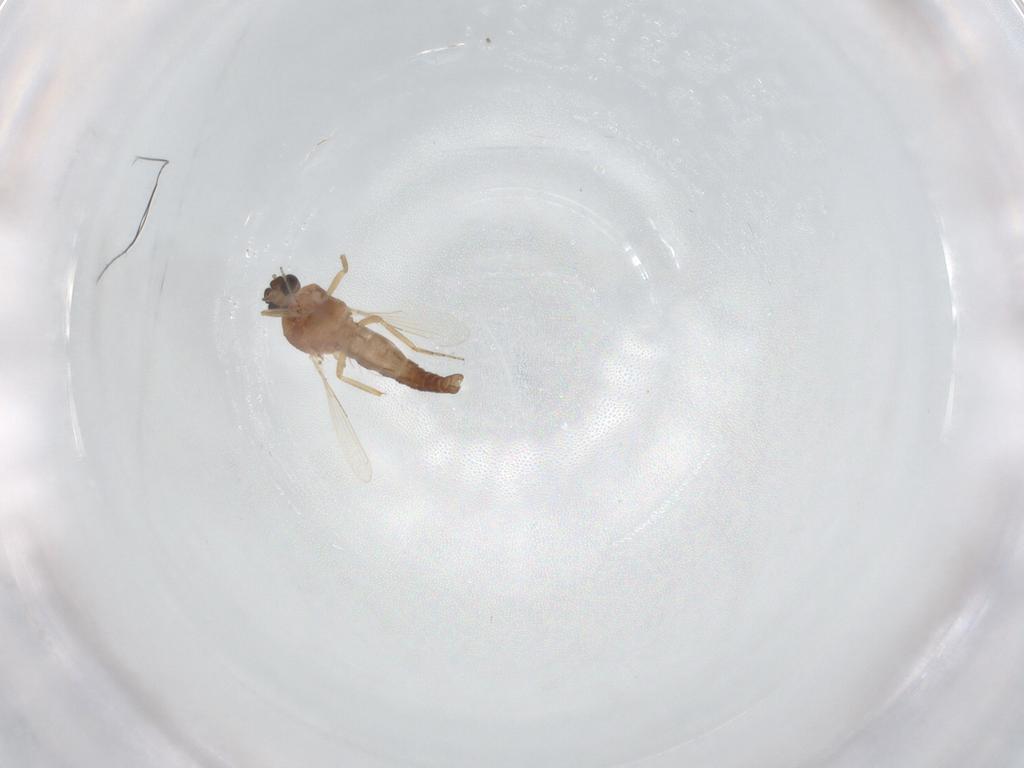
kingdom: Animalia
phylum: Arthropoda
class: Insecta
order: Diptera
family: Ceratopogonidae
